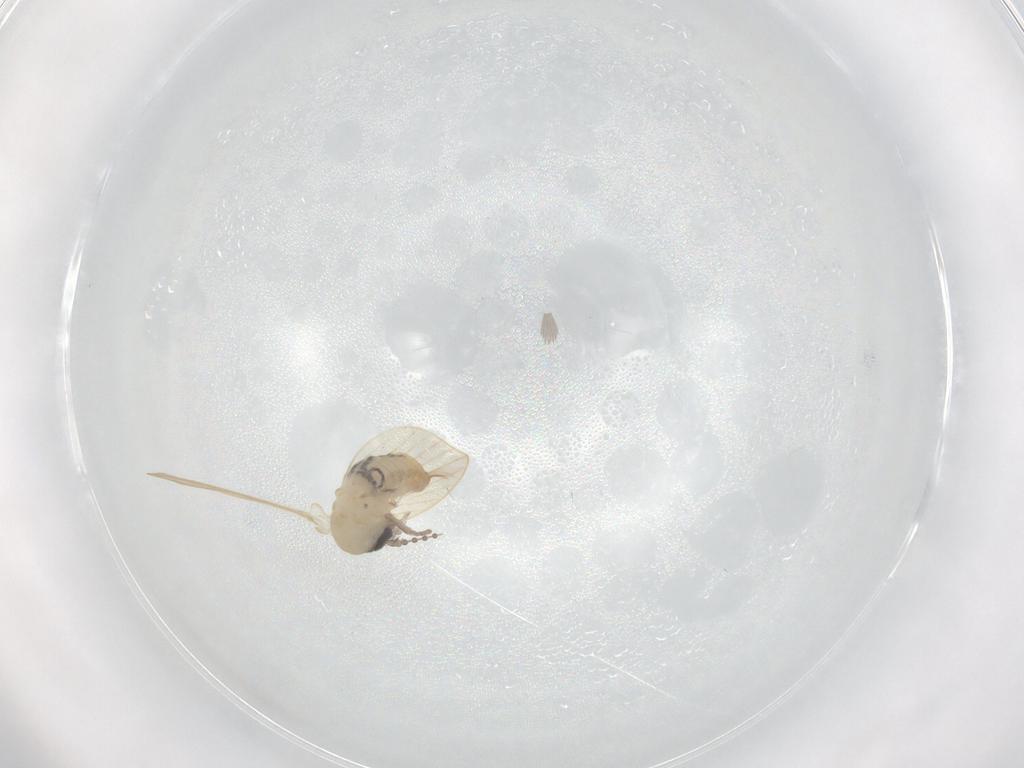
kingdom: Animalia
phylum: Arthropoda
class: Insecta
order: Diptera
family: Psychodidae
